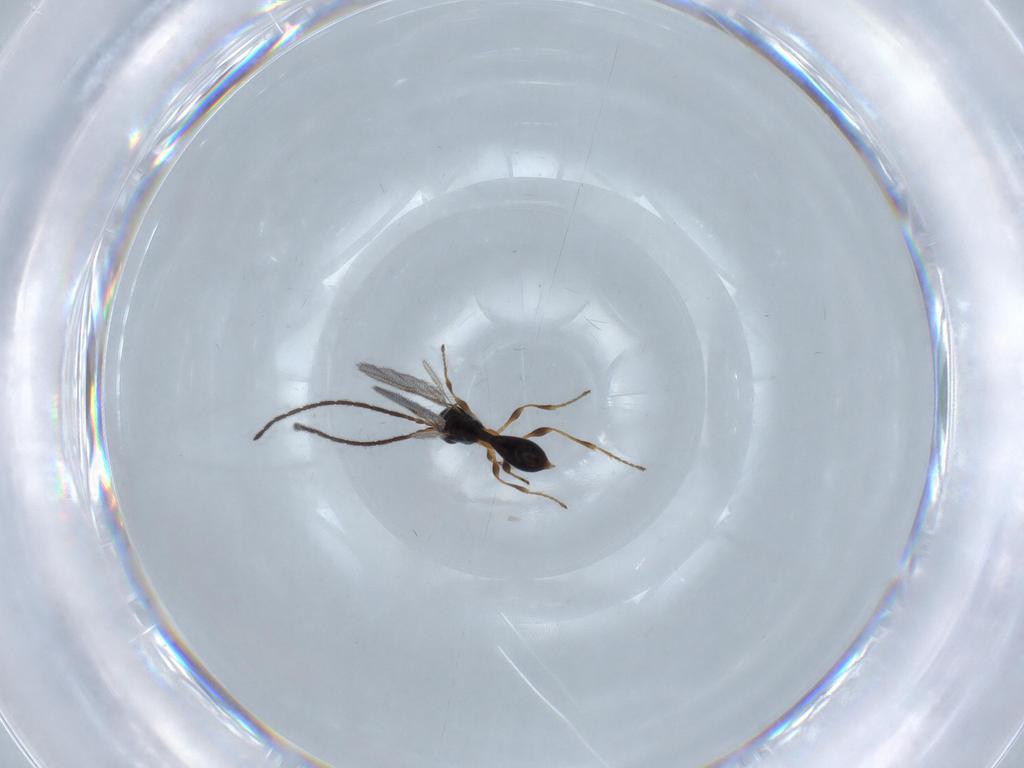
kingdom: Animalia
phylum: Arthropoda
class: Insecta
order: Hymenoptera
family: Diapriidae
